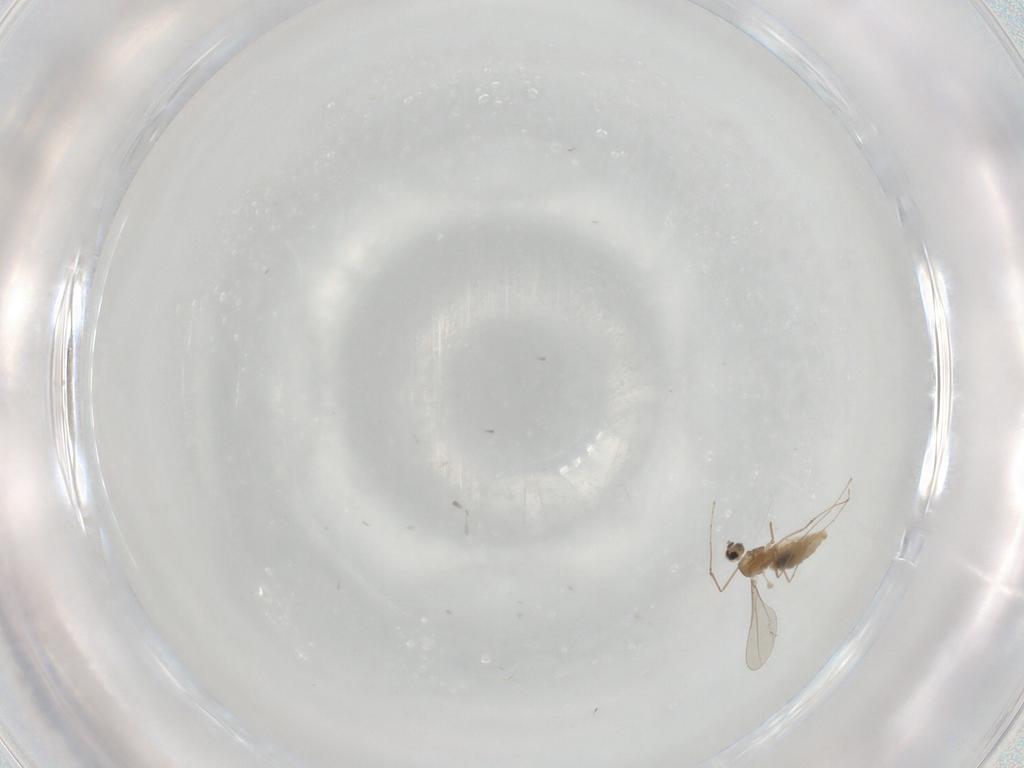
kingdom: Animalia
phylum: Arthropoda
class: Insecta
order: Diptera
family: Cecidomyiidae
